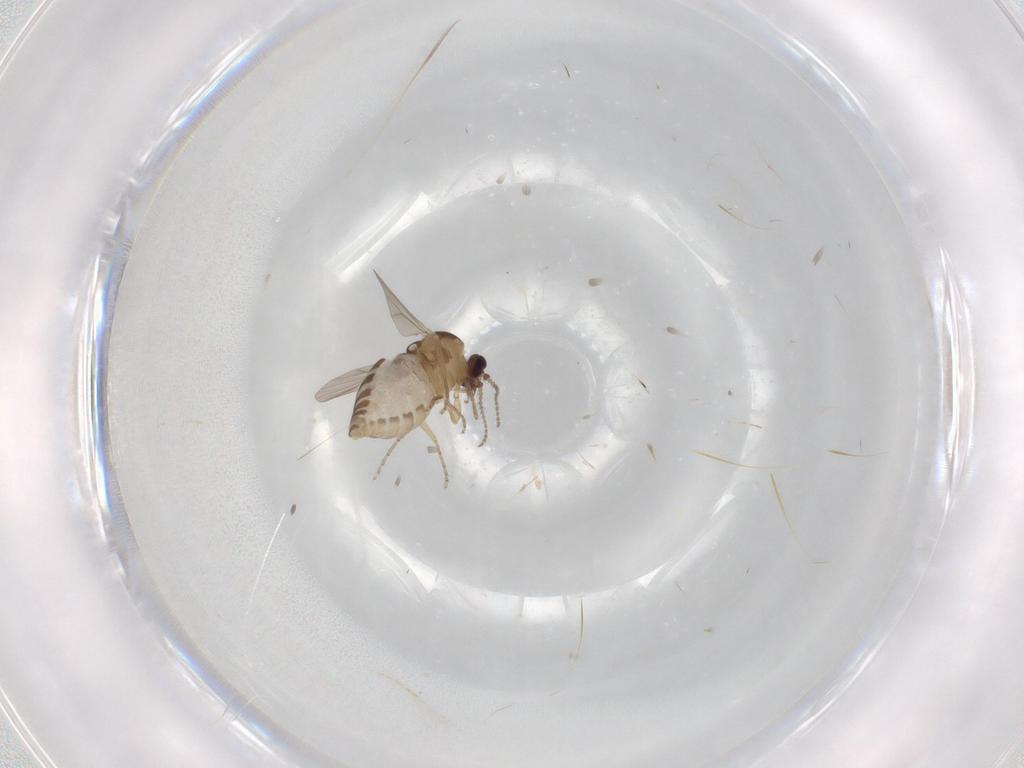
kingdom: Animalia
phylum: Arthropoda
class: Insecta
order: Diptera
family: Ceratopogonidae
